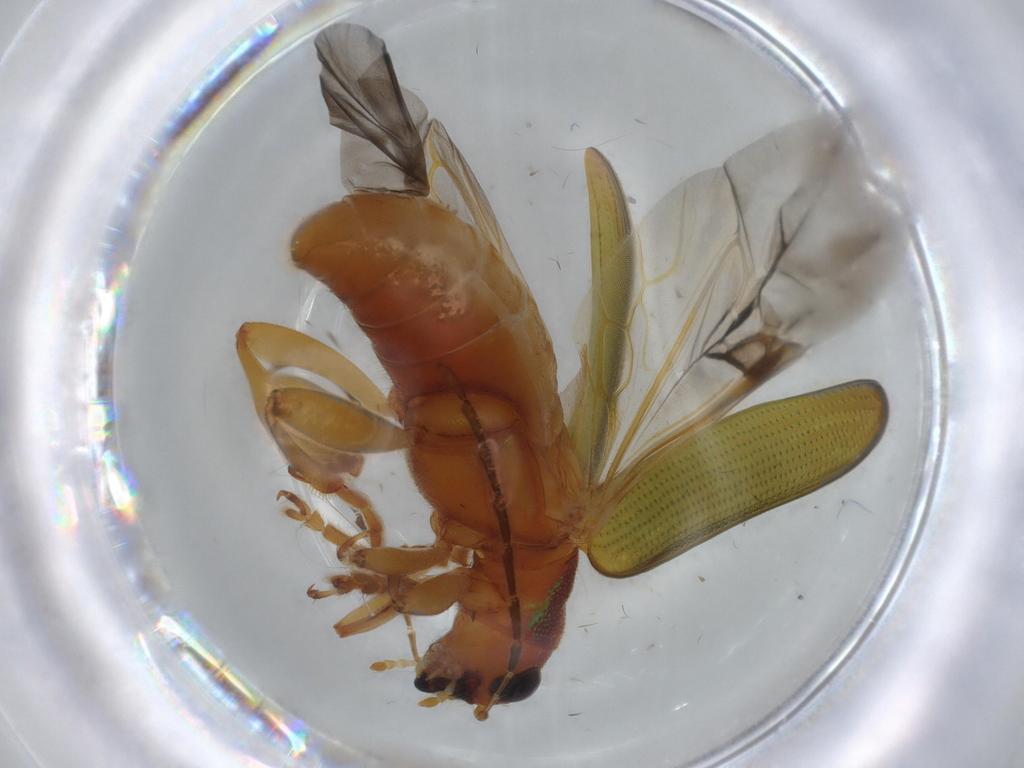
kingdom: Animalia
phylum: Arthropoda
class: Insecta
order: Coleoptera
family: Chrysomelidae
